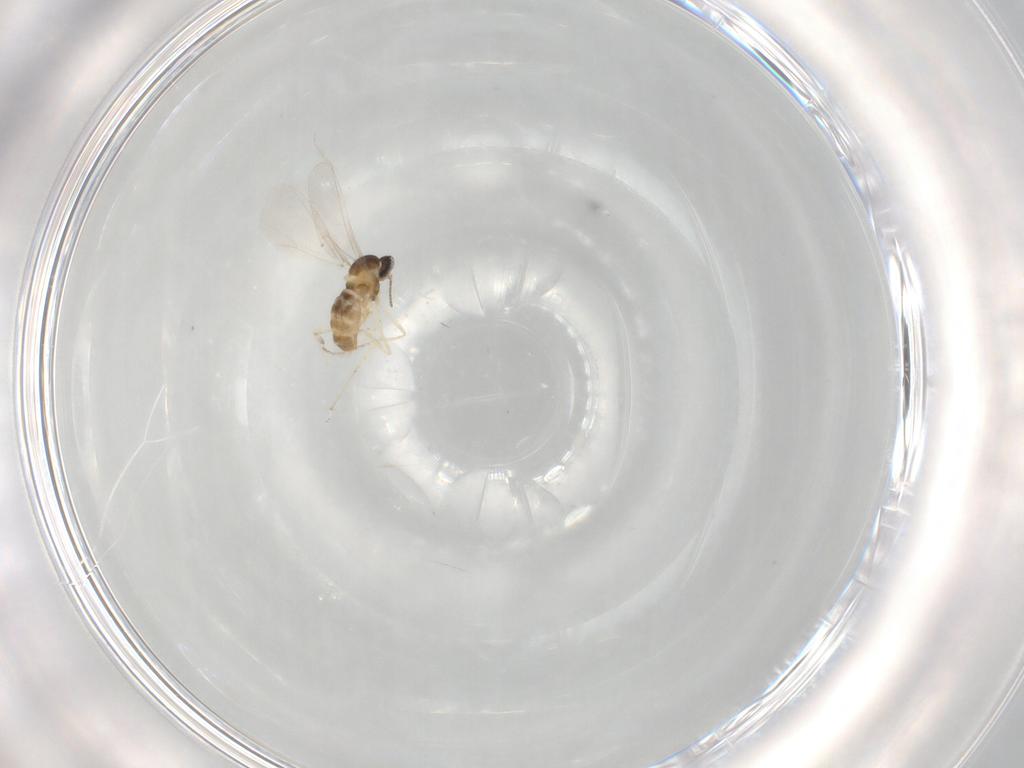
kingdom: Animalia
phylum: Arthropoda
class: Insecta
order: Diptera
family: Cecidomyiidae
